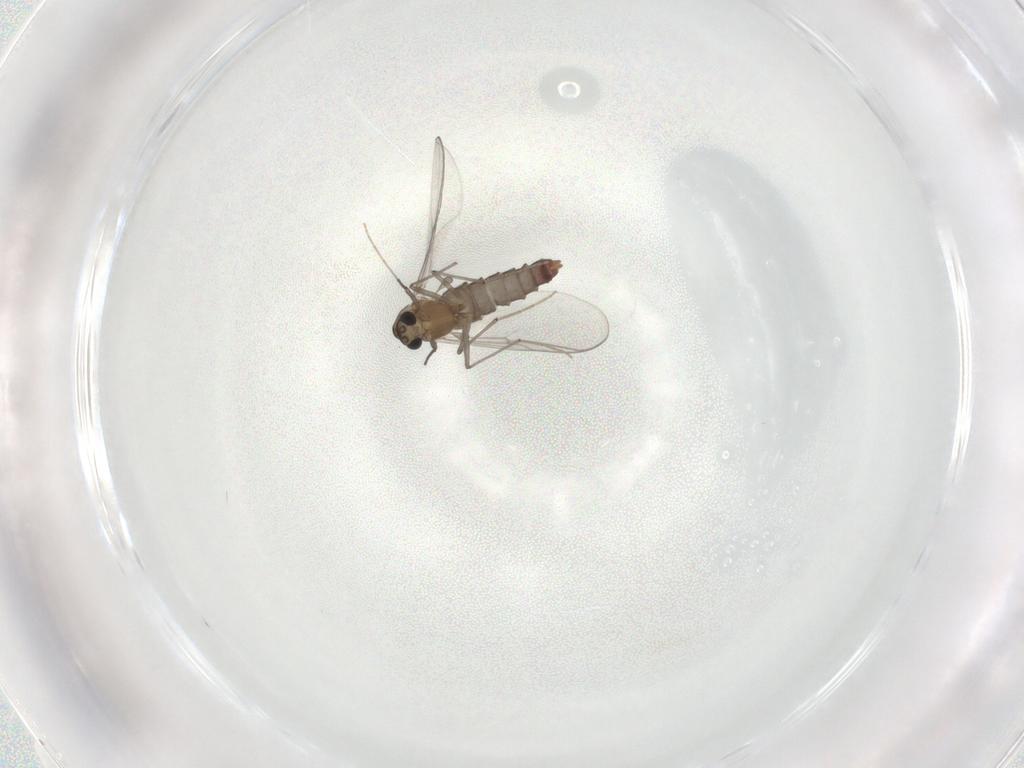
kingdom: Animalia
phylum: Arthropoda
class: Insecta
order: Diptera
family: Chironomidae
